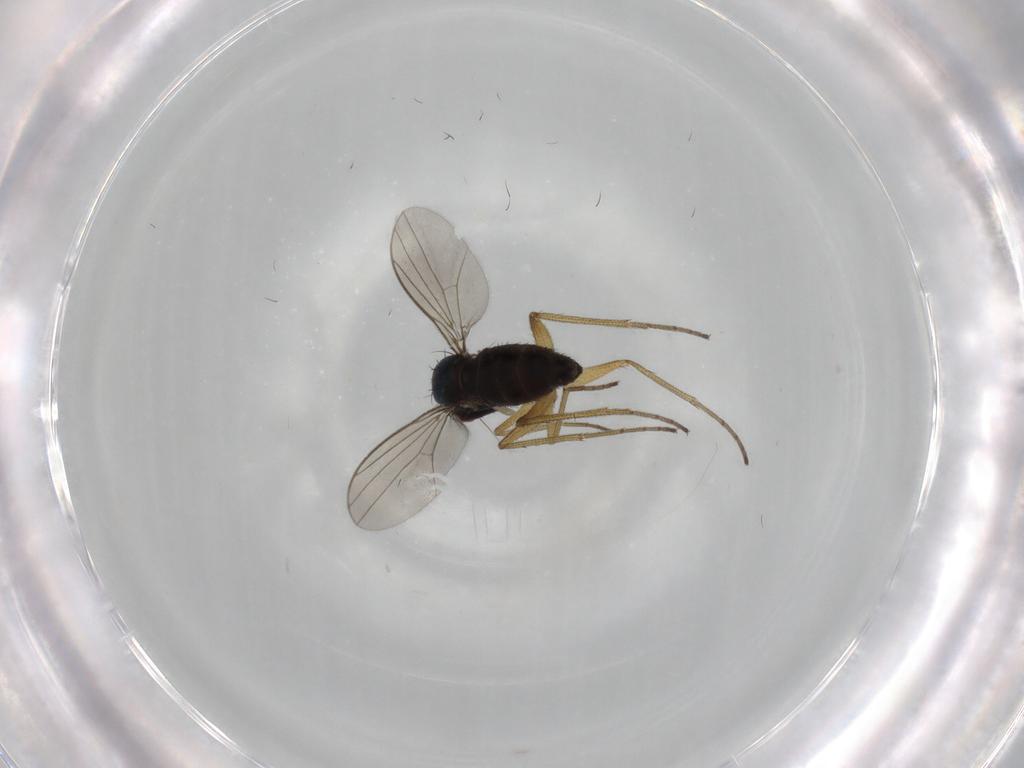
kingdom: Animalia
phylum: Arthropoda
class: Insecta
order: Diptera
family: Dolichopodidae
